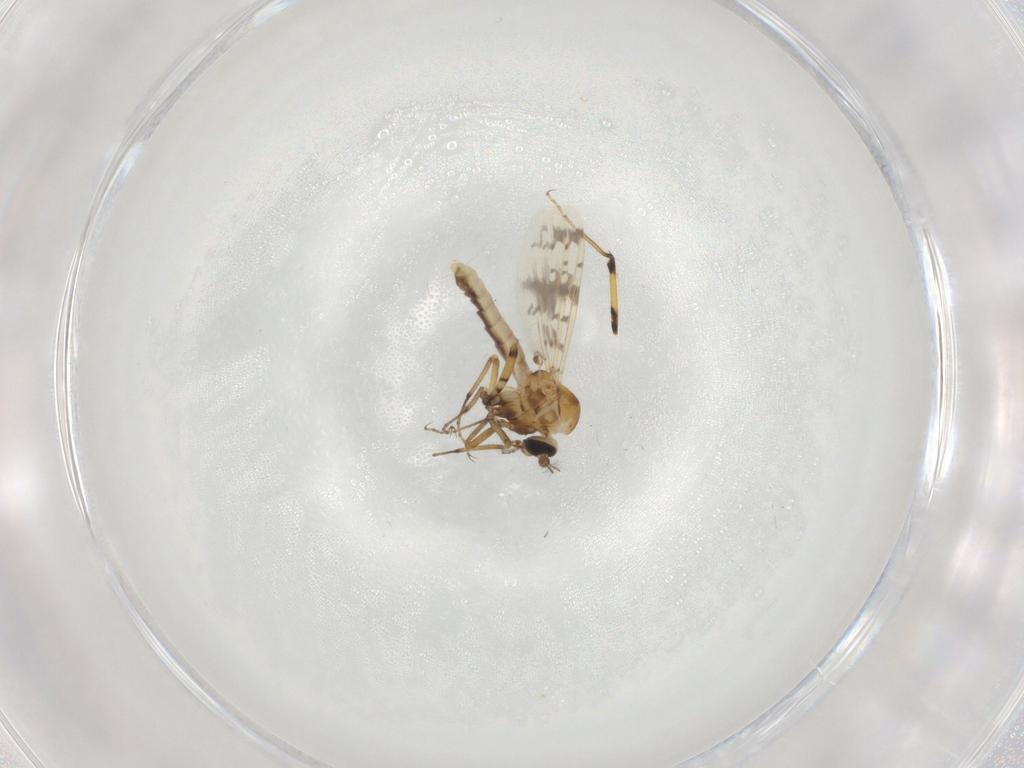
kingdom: Animalia
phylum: Arthropoda
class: Insecta
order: Diptera
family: Ceratopogonidae
